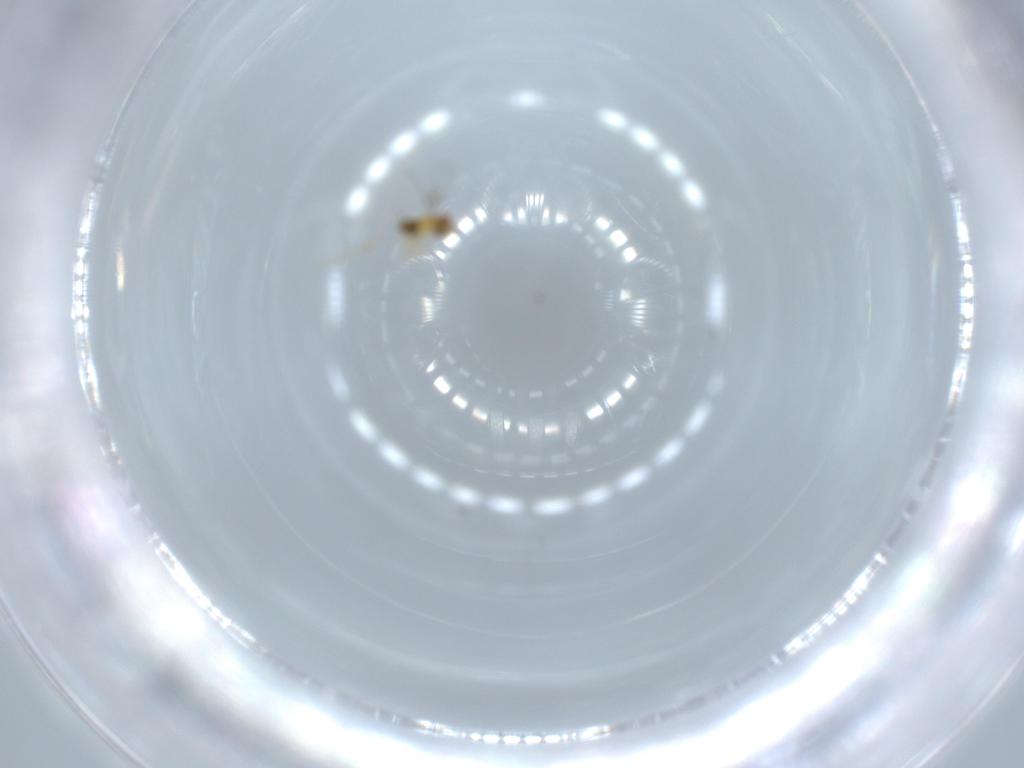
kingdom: Animalia
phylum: Arthropoda
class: Insecta
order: Hymenoptera
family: Trichogrammatidae
